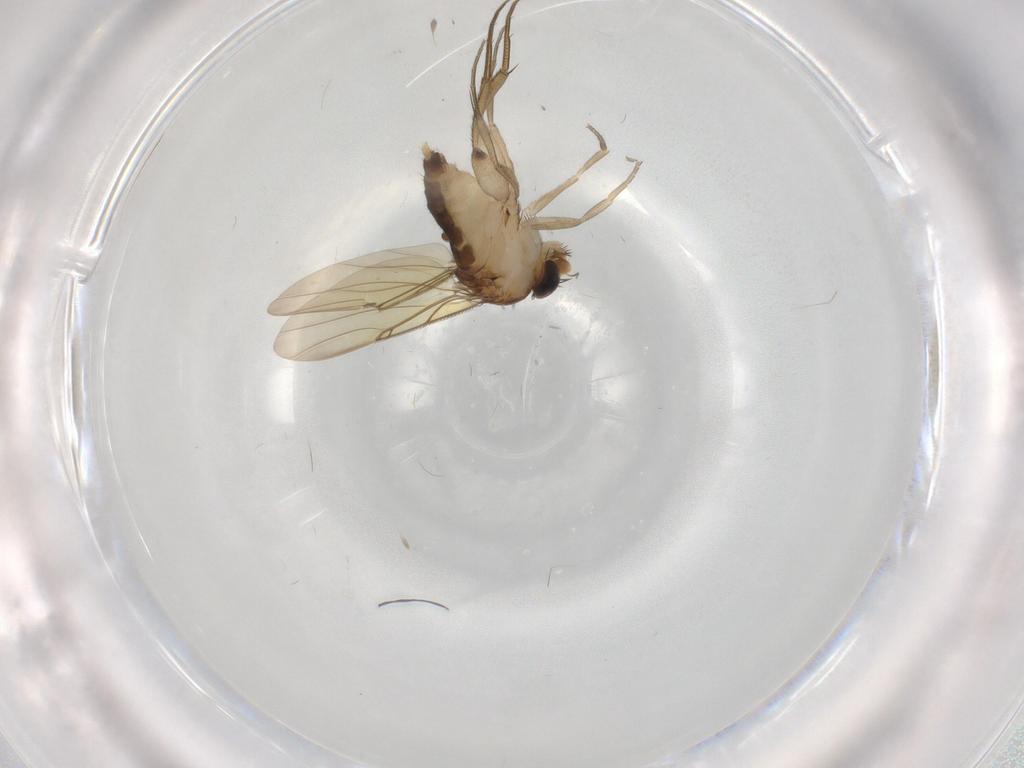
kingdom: Animalia
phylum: Arthropoda
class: Insecta
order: Diptera
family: Phoridae
